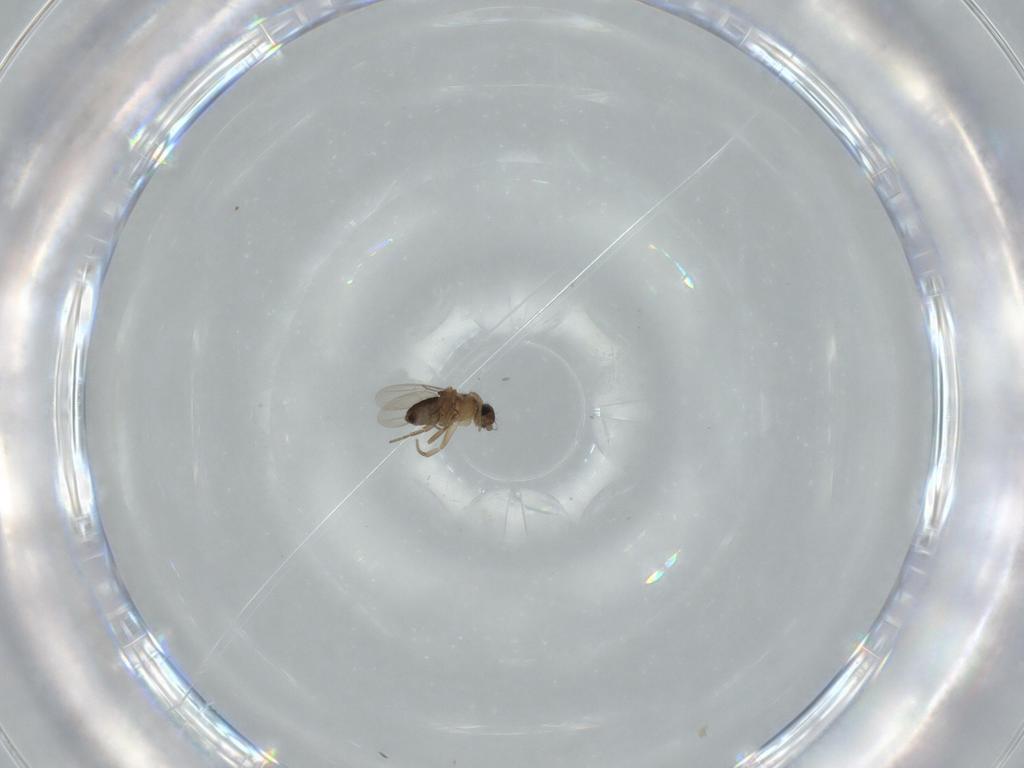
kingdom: Animalia
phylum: Arthropoda
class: Insecta
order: Diptera
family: Phoridae
